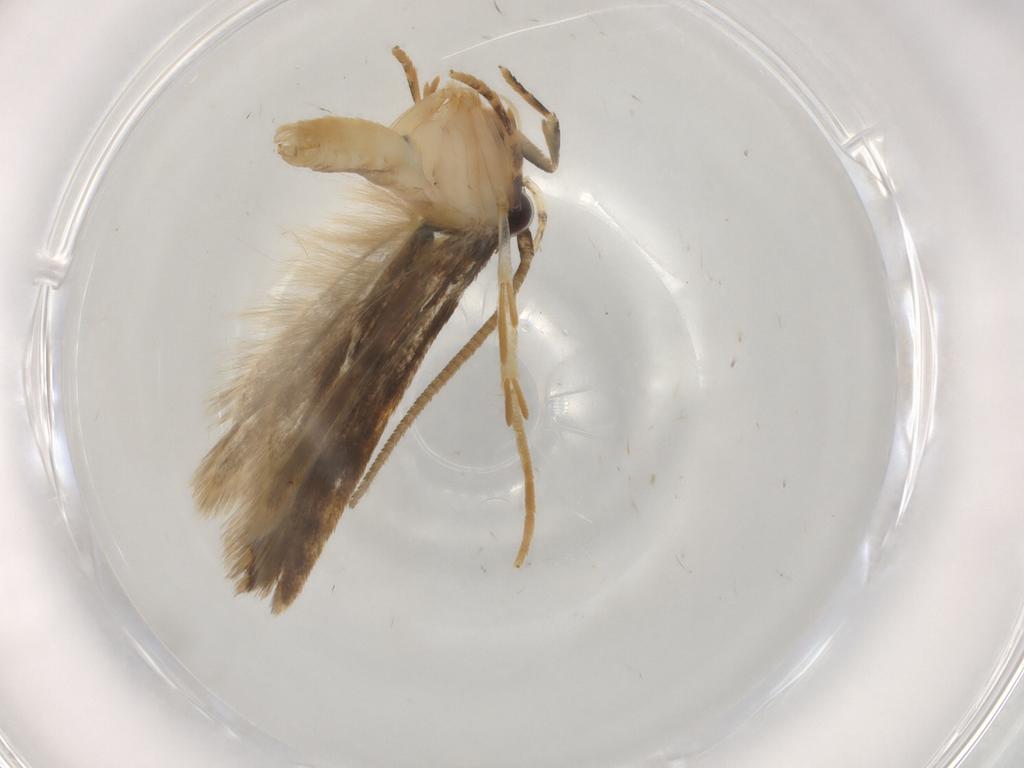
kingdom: Animalia
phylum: Arthropoda
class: Insecta
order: Lepidoptera
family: Autostichidae
